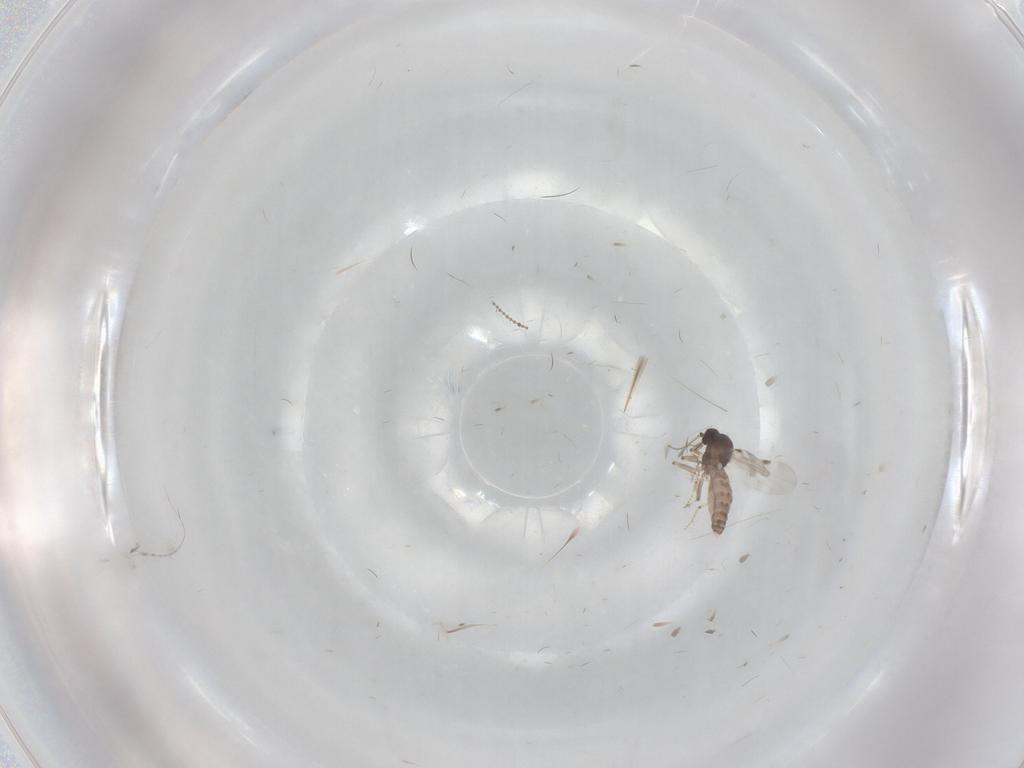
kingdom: Animalia
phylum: Arthropoda
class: Insecta
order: Diptera
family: Cecidomyiidae
